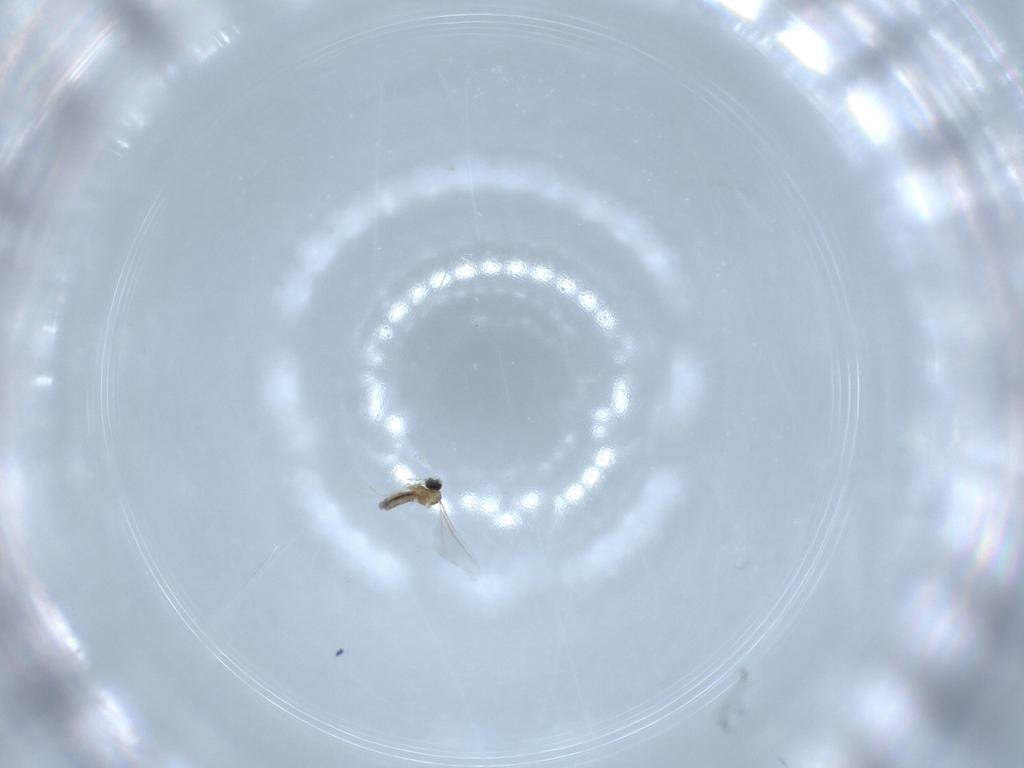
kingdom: Animalia
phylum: Arthropoda
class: Insecta
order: Diptera
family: Cecidomyiidae
